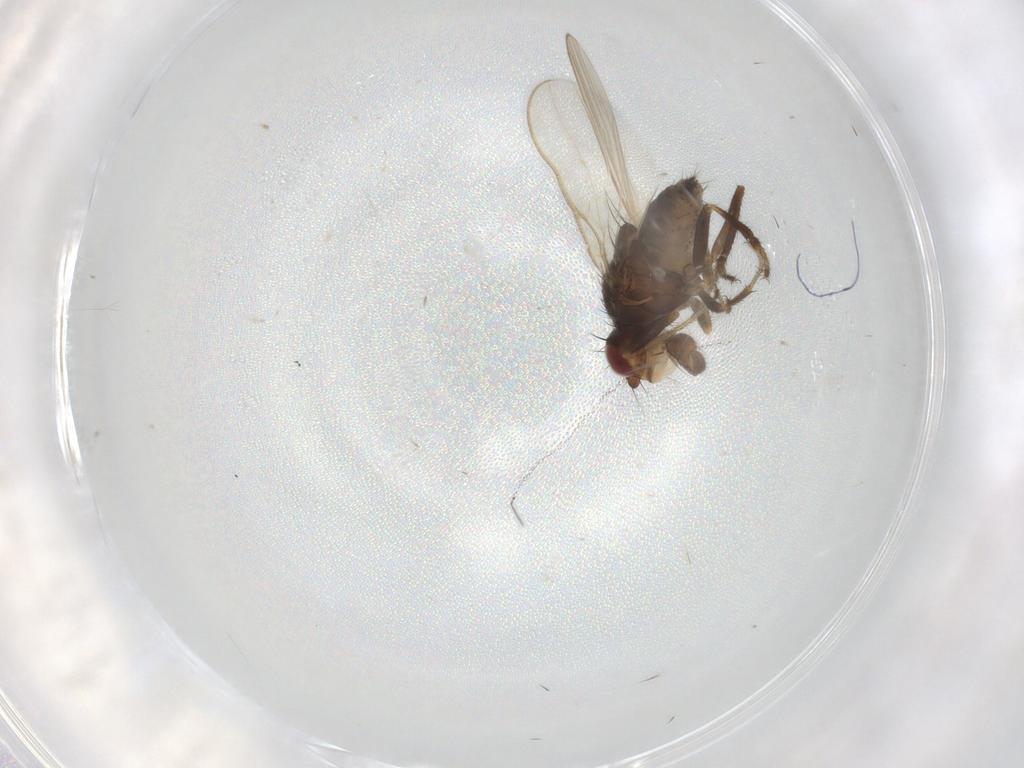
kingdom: Animalia
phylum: Arthropoda
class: Insecta
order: Diptera
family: Sphaeroceridae
